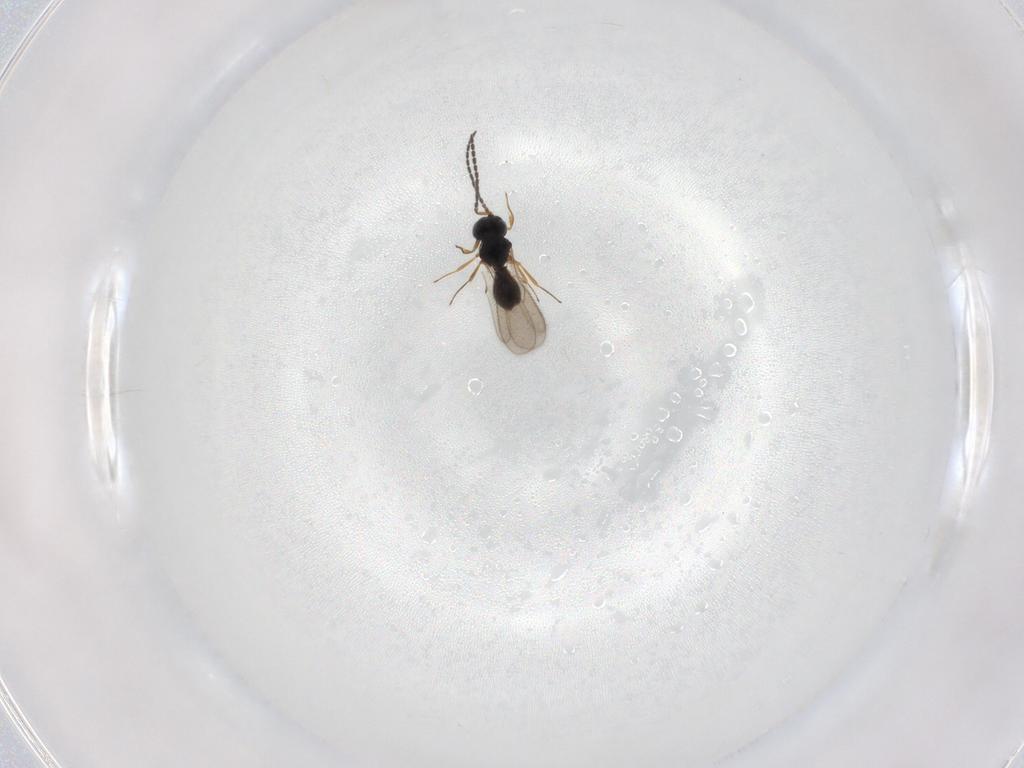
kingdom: Animalia
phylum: Arthropoda
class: Insecta
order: Hymenoptera
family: Scelionidae
